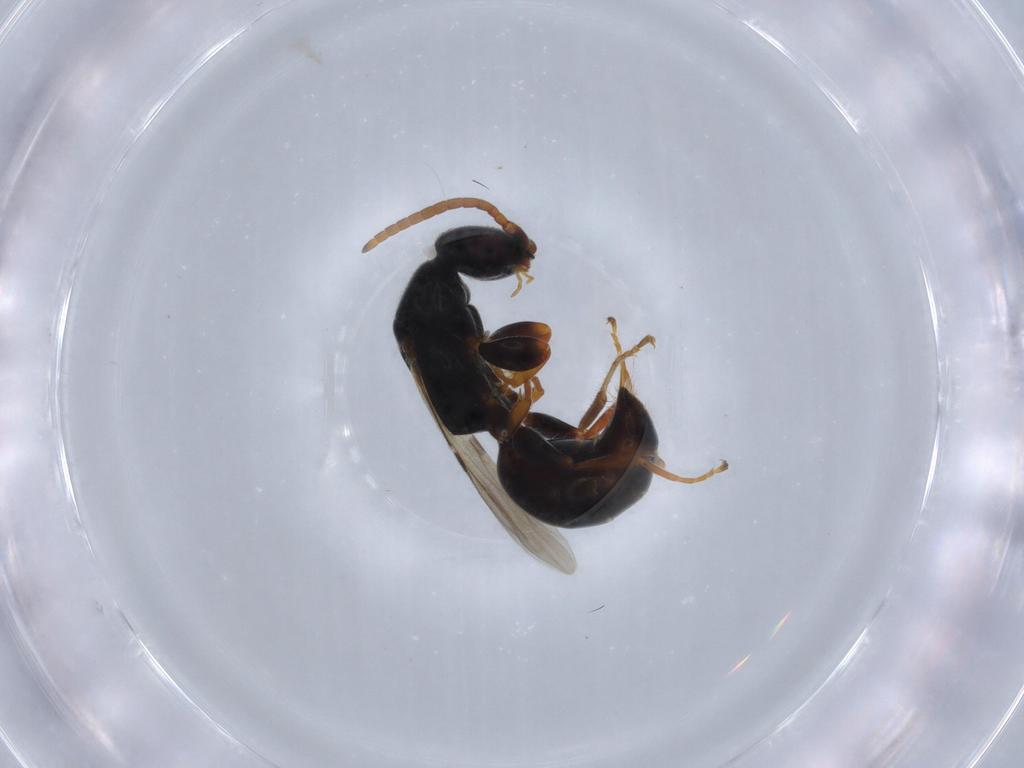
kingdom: Animalia
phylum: Arthropoda
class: Insecta
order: Hymenoptera
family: Bethylidae
